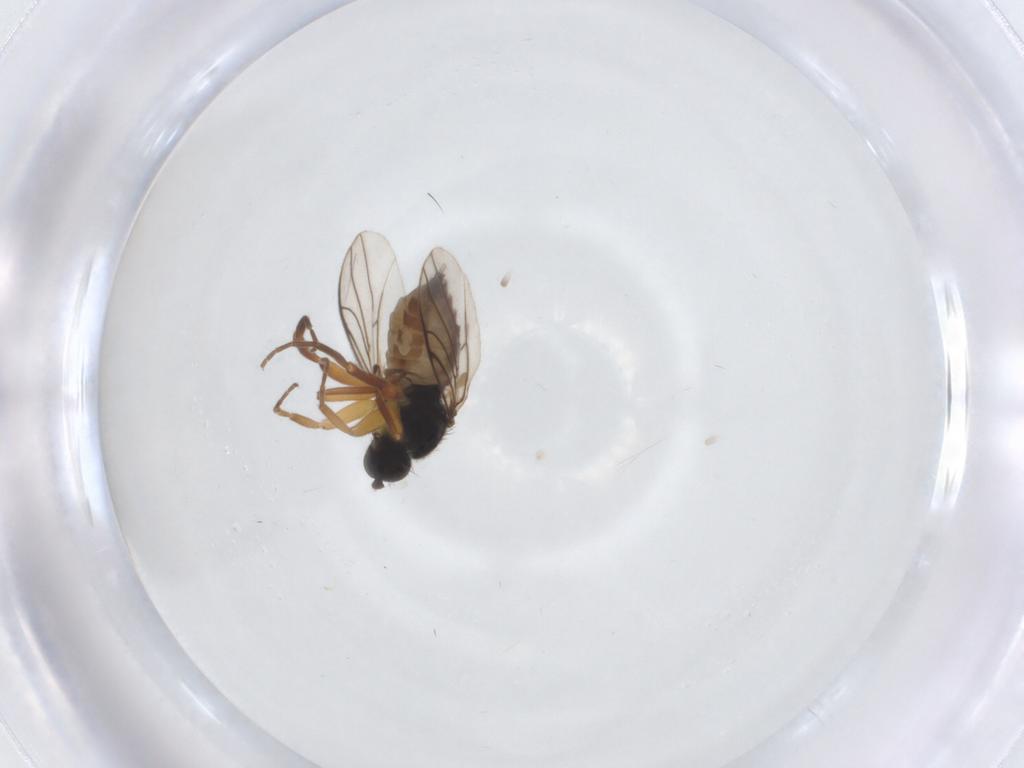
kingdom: Animalia
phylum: Arthropoda
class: Insecta
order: Diptera
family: Hybotidae
